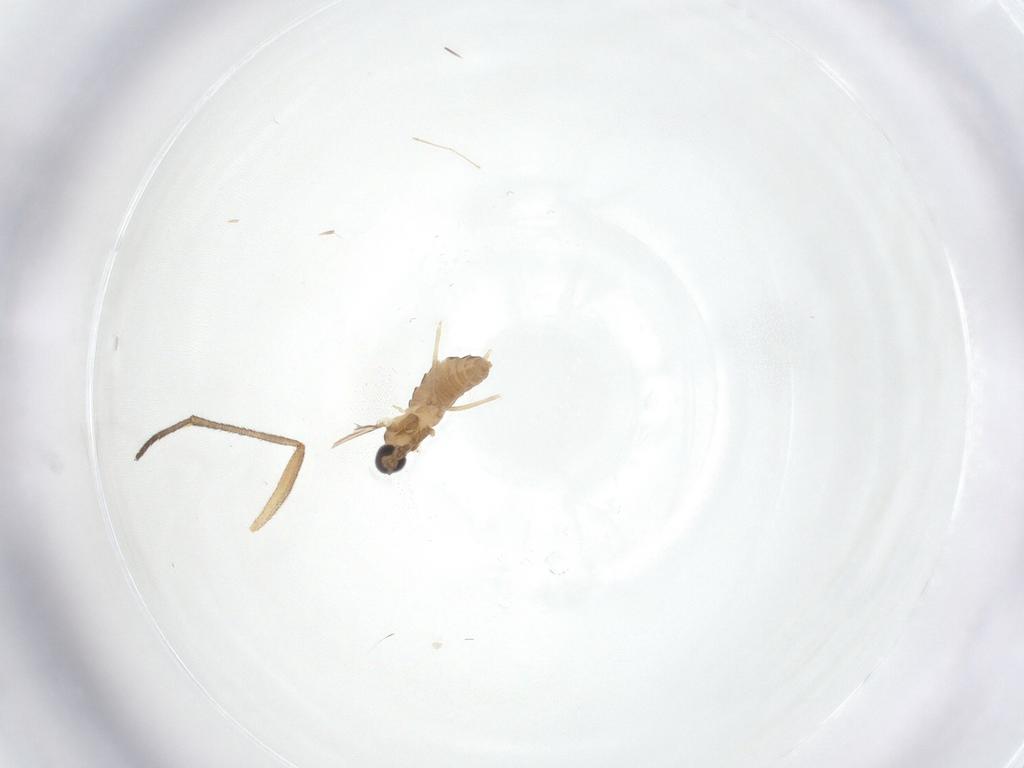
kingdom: Animalia
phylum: Arthropoda
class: Insecta
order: Diptera
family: Cecidomyiidae
